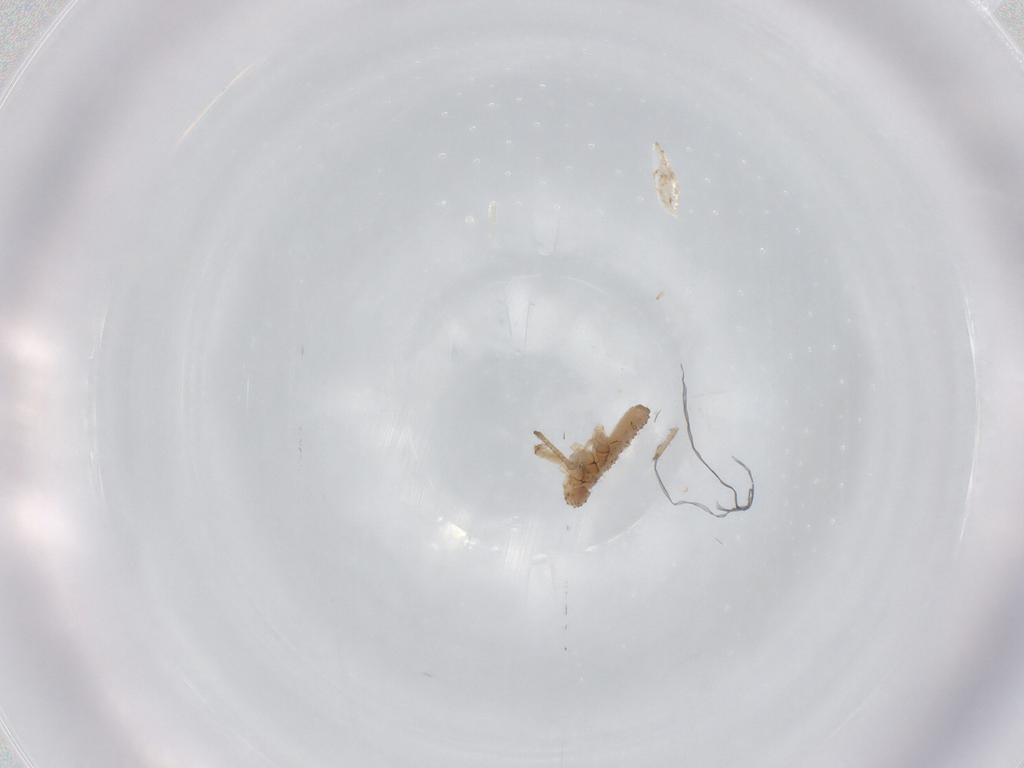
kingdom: Animalia
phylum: Arthropoda
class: Insecta
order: Hemiptera
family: Aphididae
